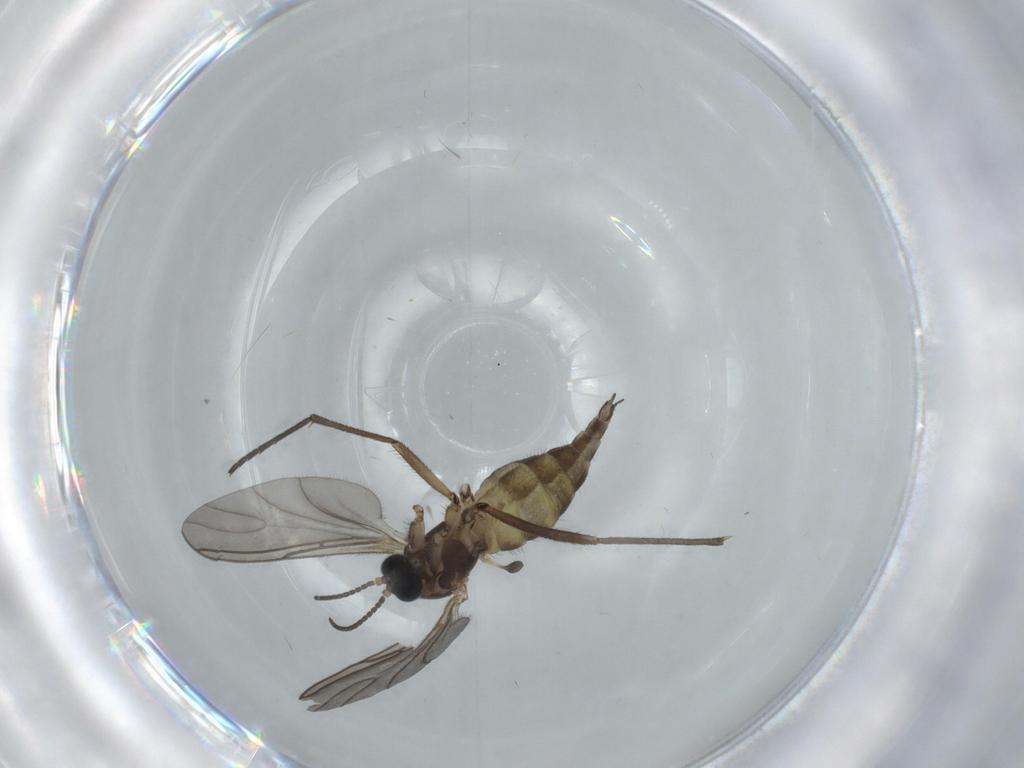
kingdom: Animalia
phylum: Arthropoda
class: Insecta
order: Diptera
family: Sciaridae
